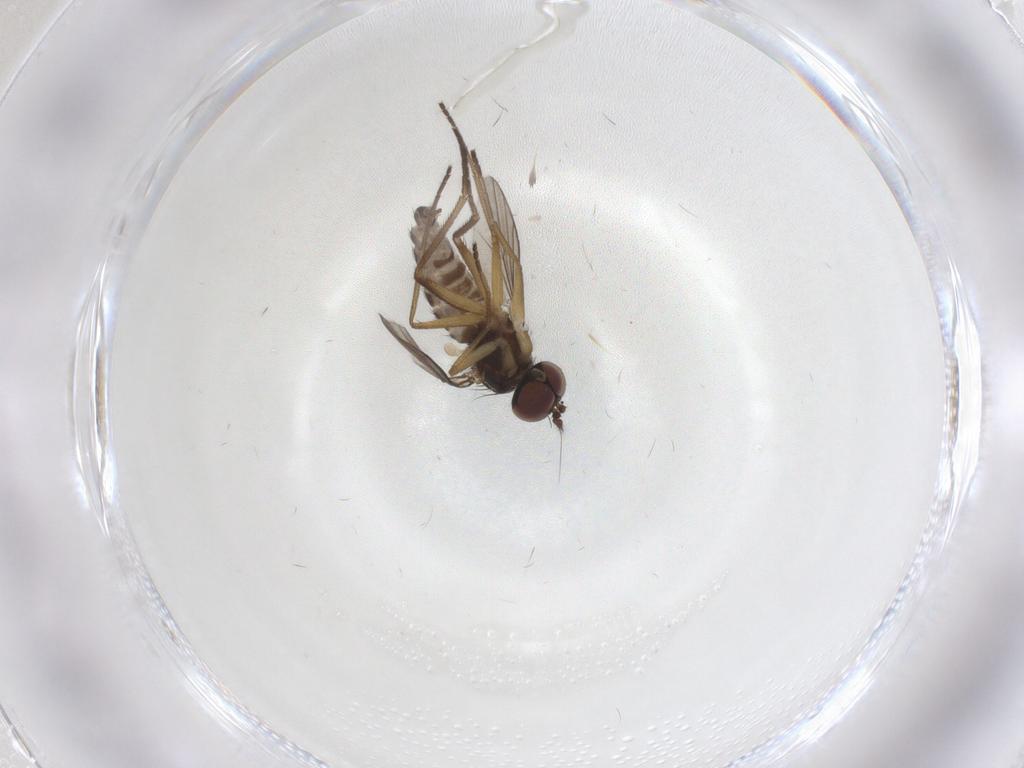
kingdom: Animalia
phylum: Arthropoda
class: Insecta
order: Diptera
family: Dolichopodidae
